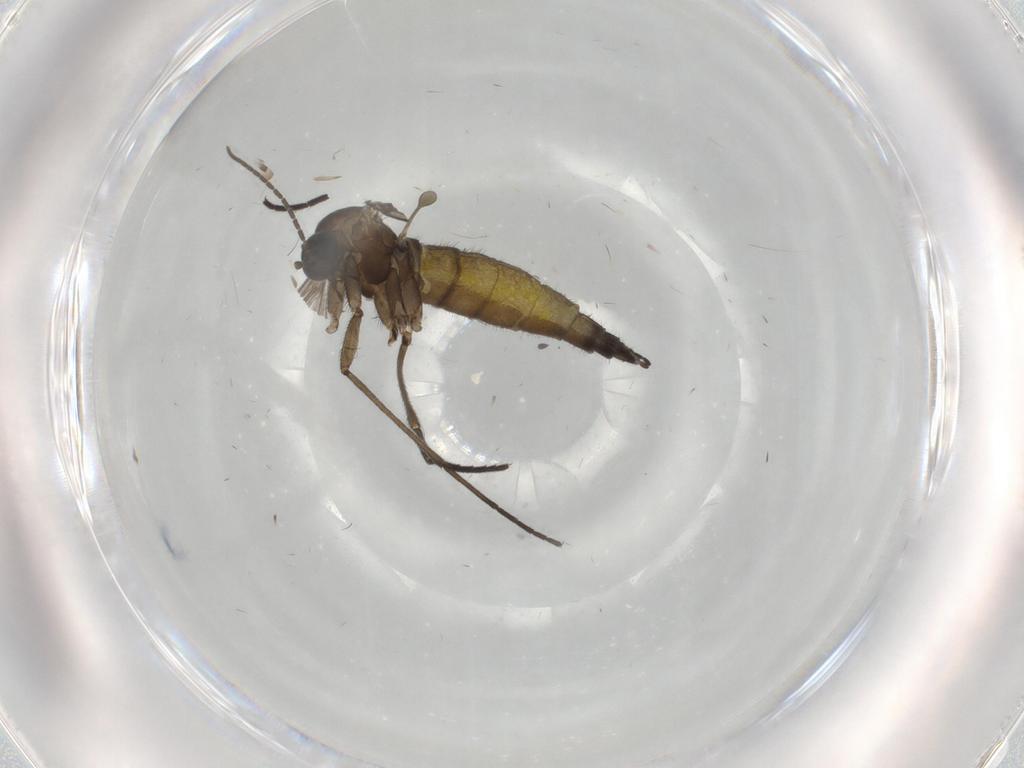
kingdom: Animalia
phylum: Arthropoda
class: Insecta
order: Diptera
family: Sciaridae
